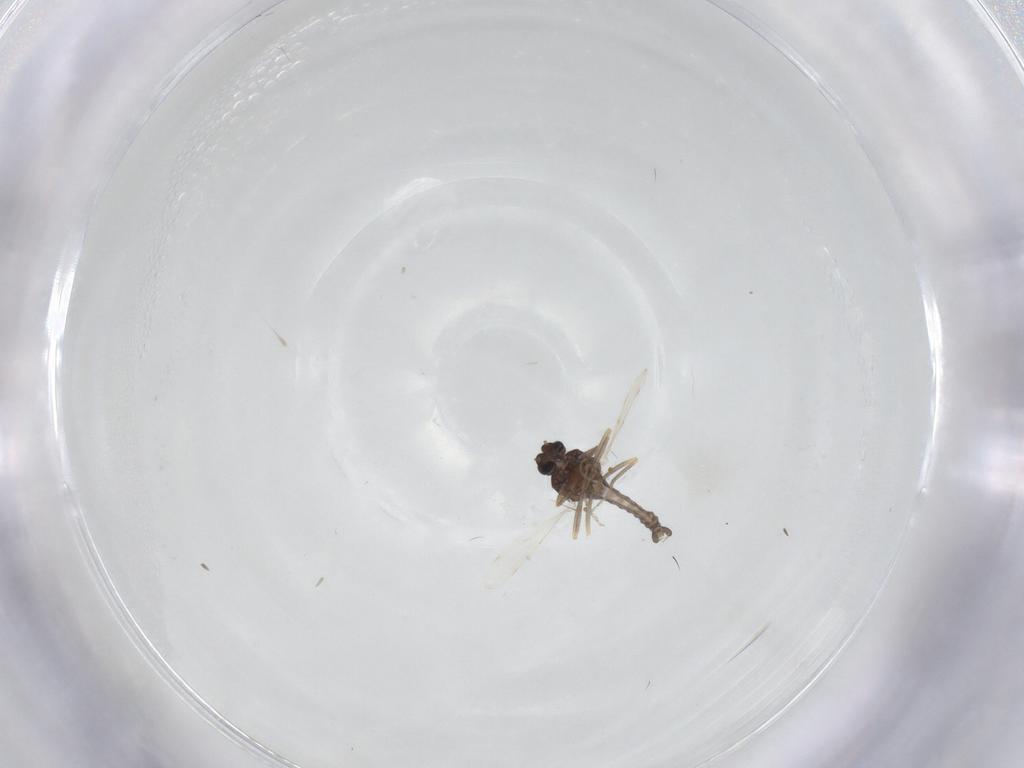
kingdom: Animalia
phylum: Arthropoda
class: Insecta
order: Diptera
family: Ceratopogonidae
